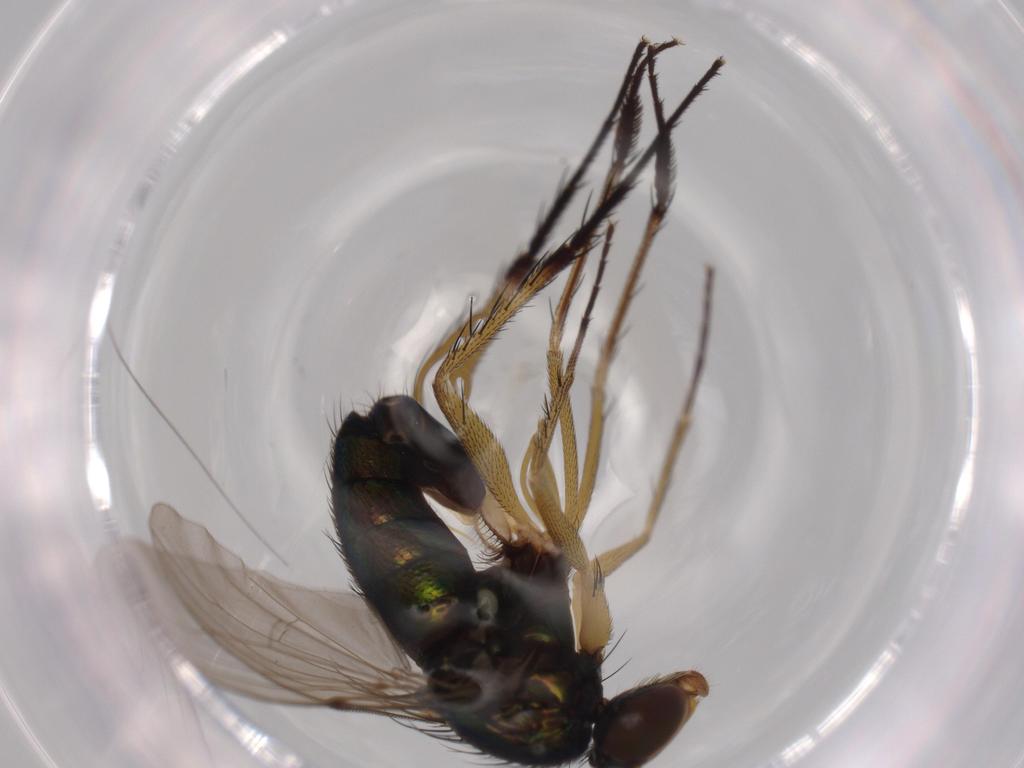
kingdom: Animalia
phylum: Arthropoda
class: Insecta
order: Diptera
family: Dolichopodidae
